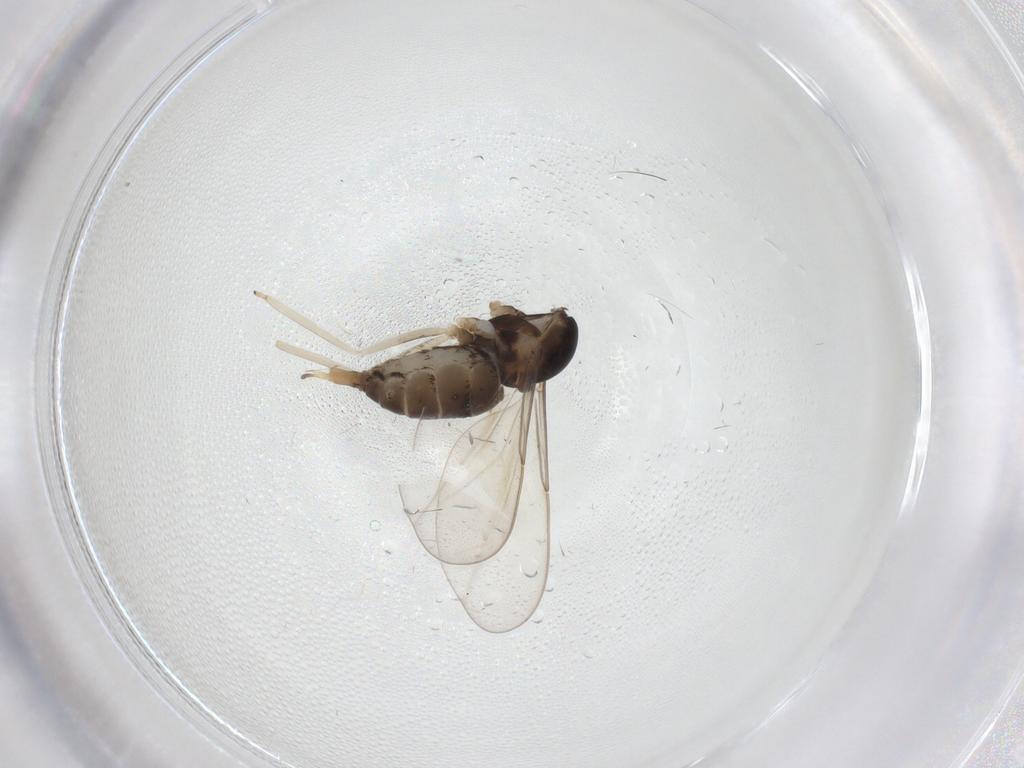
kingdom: Animalia
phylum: Arthropoda
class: Insecta
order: Diptera
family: Cecidomyiidae
